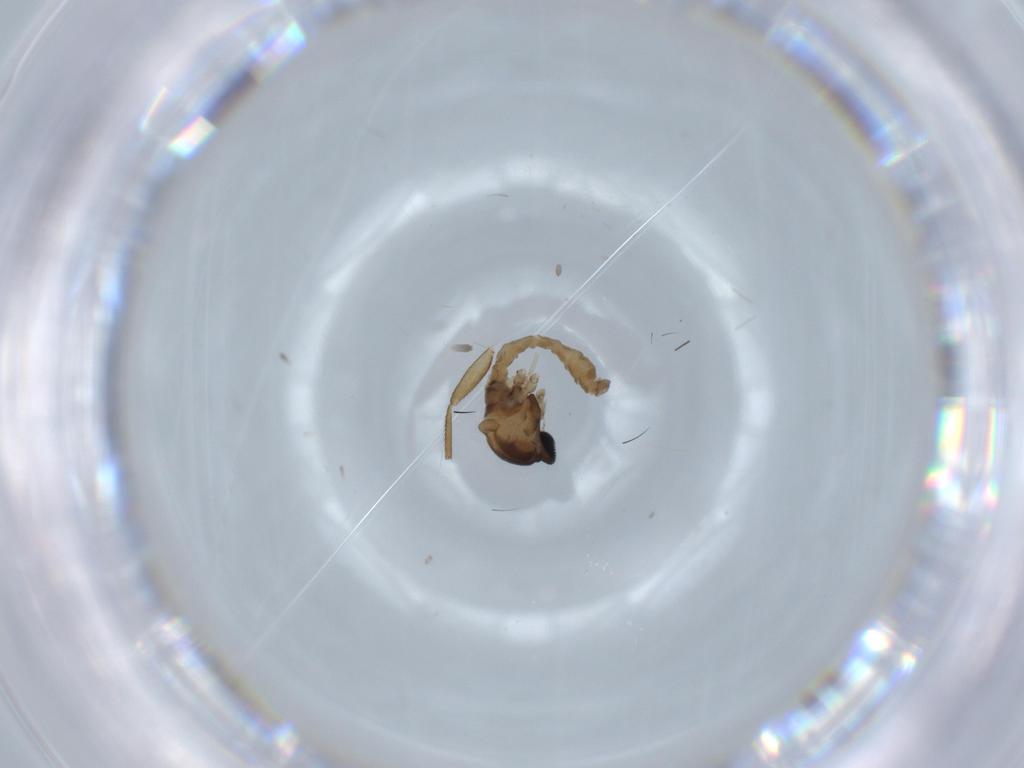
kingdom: Animalia
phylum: Arthropoda
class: Insecta
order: Diptera
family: Cecidomyiidae
